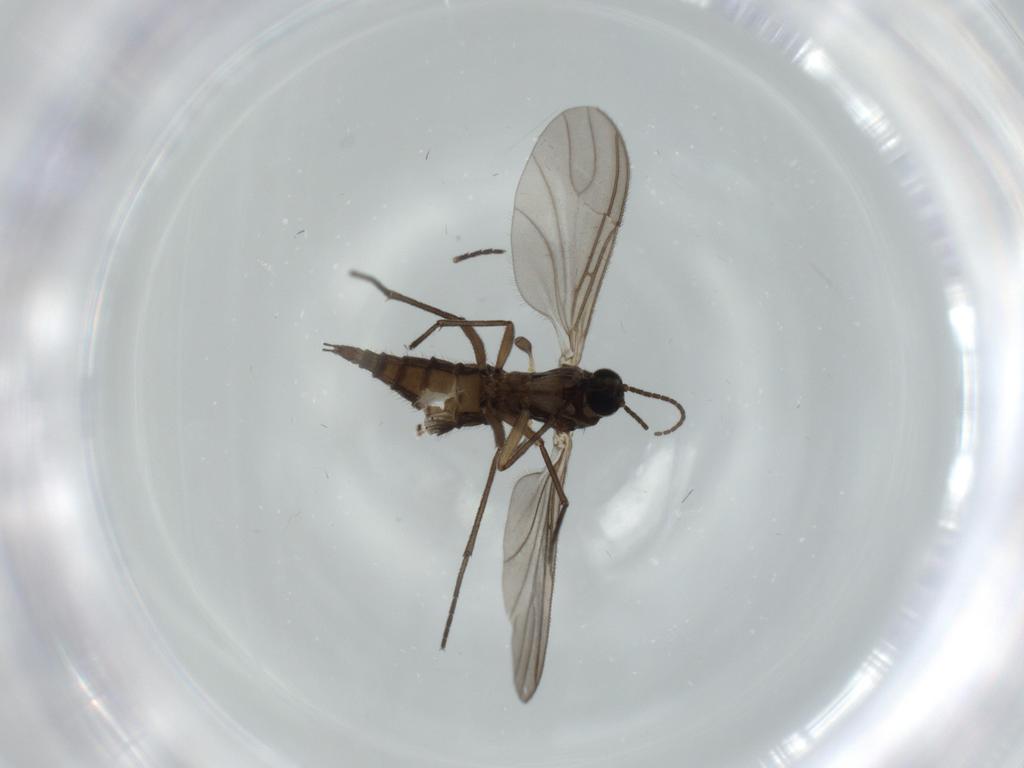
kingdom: Animalia
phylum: Arthropoda
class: Insecta
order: Diptera
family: Sciaridae
